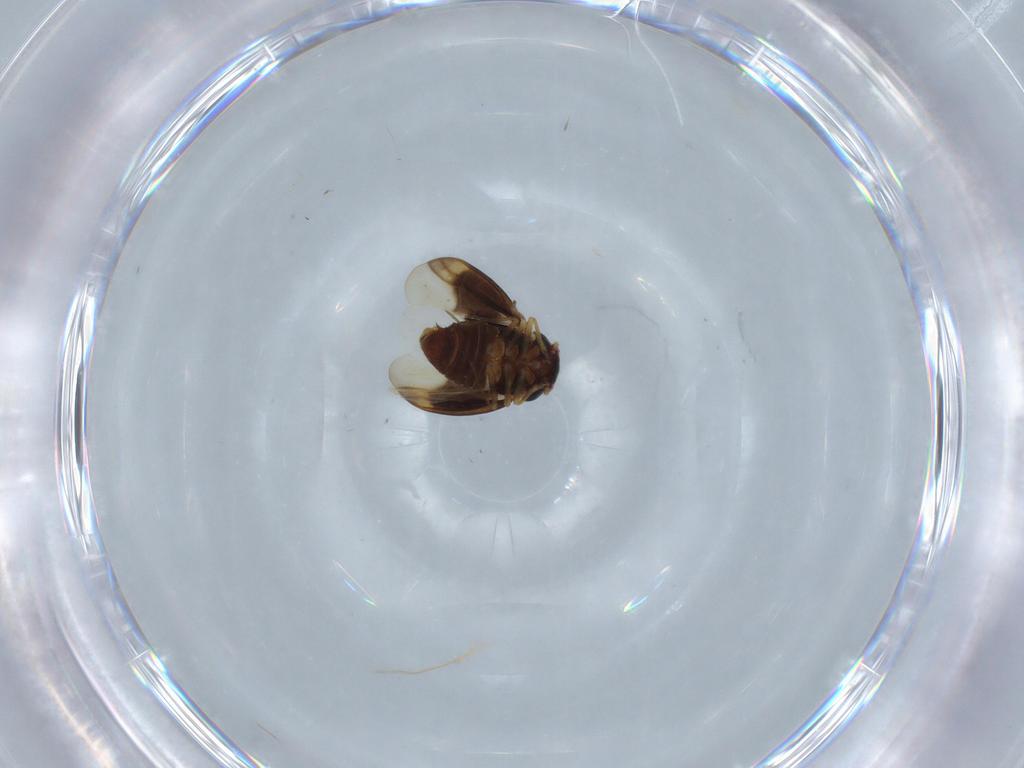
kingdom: Animalia
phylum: Arthropoda
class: Insecta
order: Hemiptera
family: Schizopteridae
